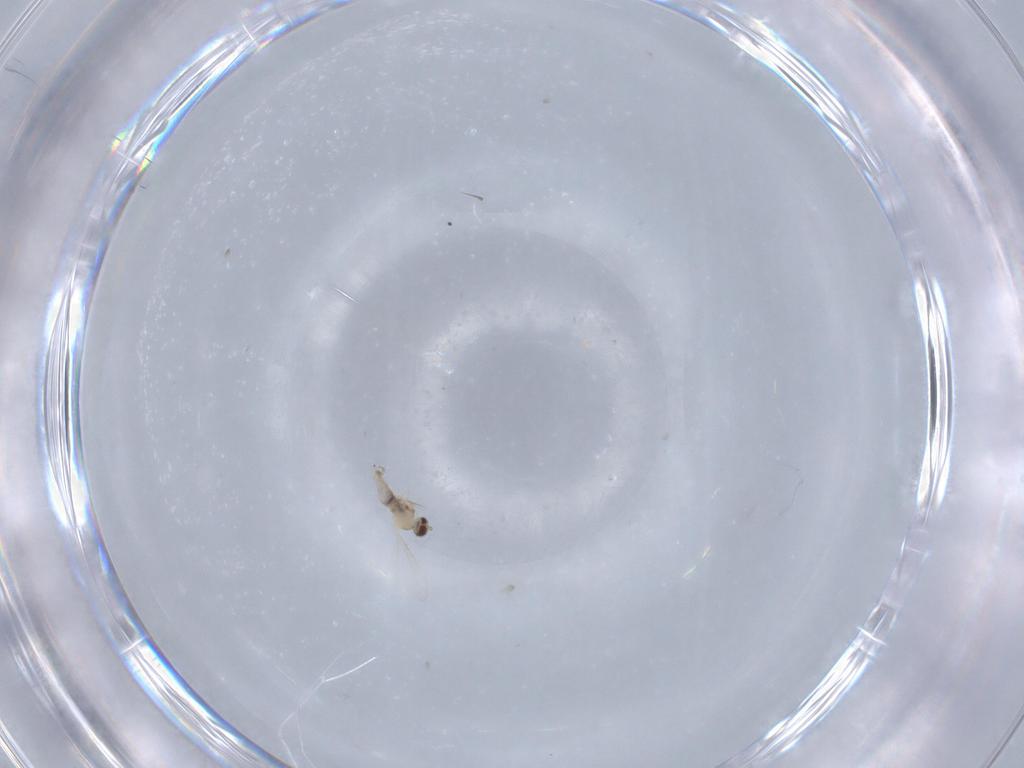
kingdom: Animalia
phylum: Arthropoda
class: Insecta
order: Diptera
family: Cecidomyiidae
